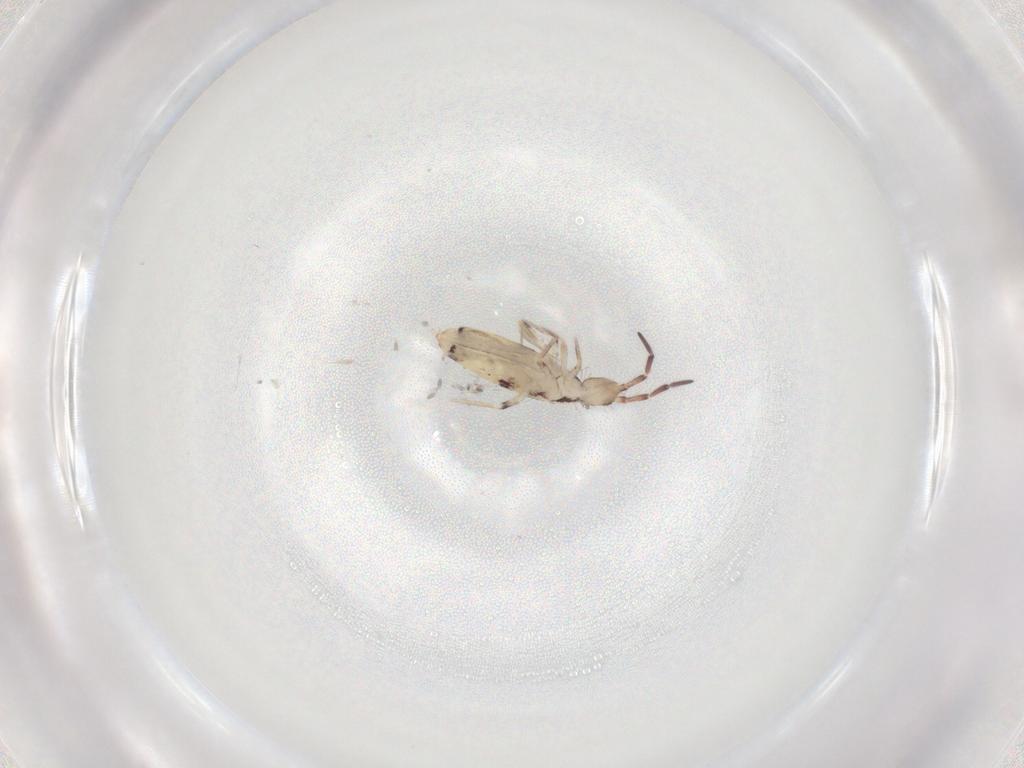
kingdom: Animalia
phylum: Arthropoda
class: Collembola
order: Entomobryomorpha
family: Entomobryidae
